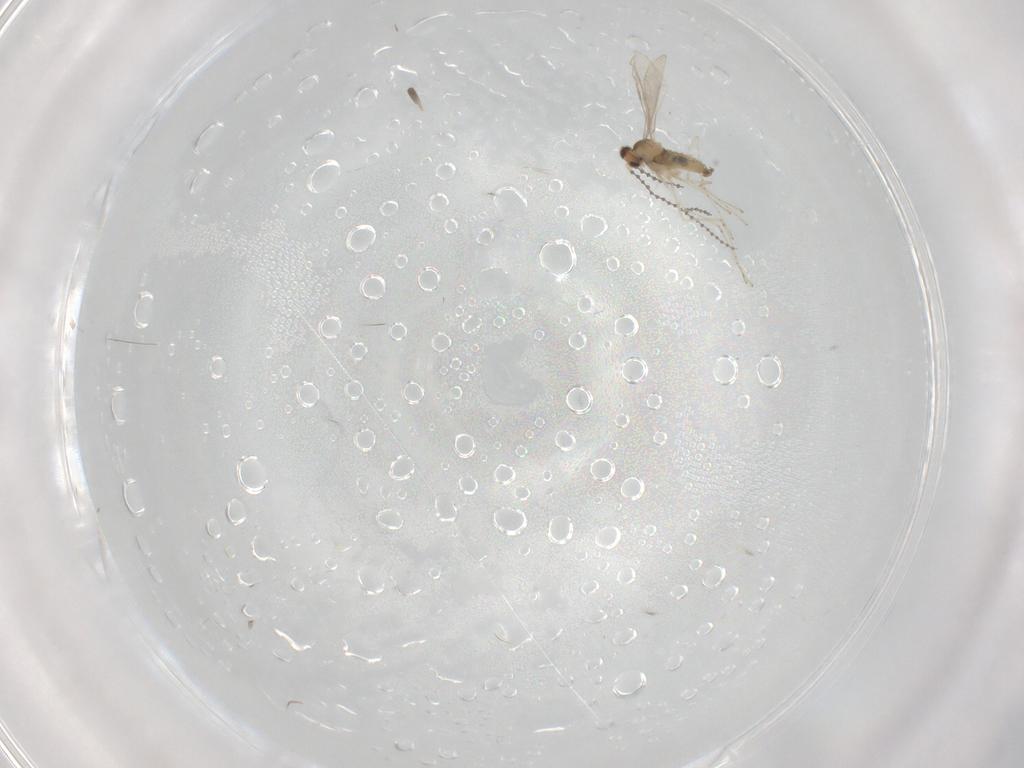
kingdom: Animalia
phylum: Arthropoda
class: Insecta
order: Diptera
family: Cecidomyiidae
